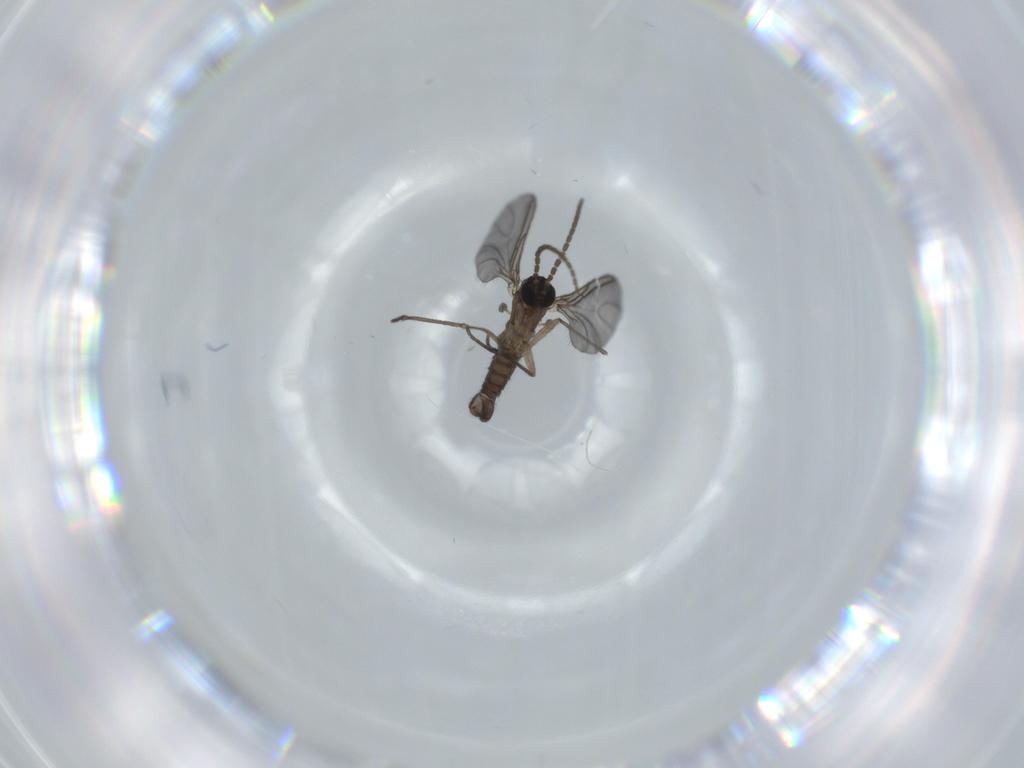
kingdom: Animalia
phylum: Arthropoda
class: Insecta
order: Diptera
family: Sciaridae
